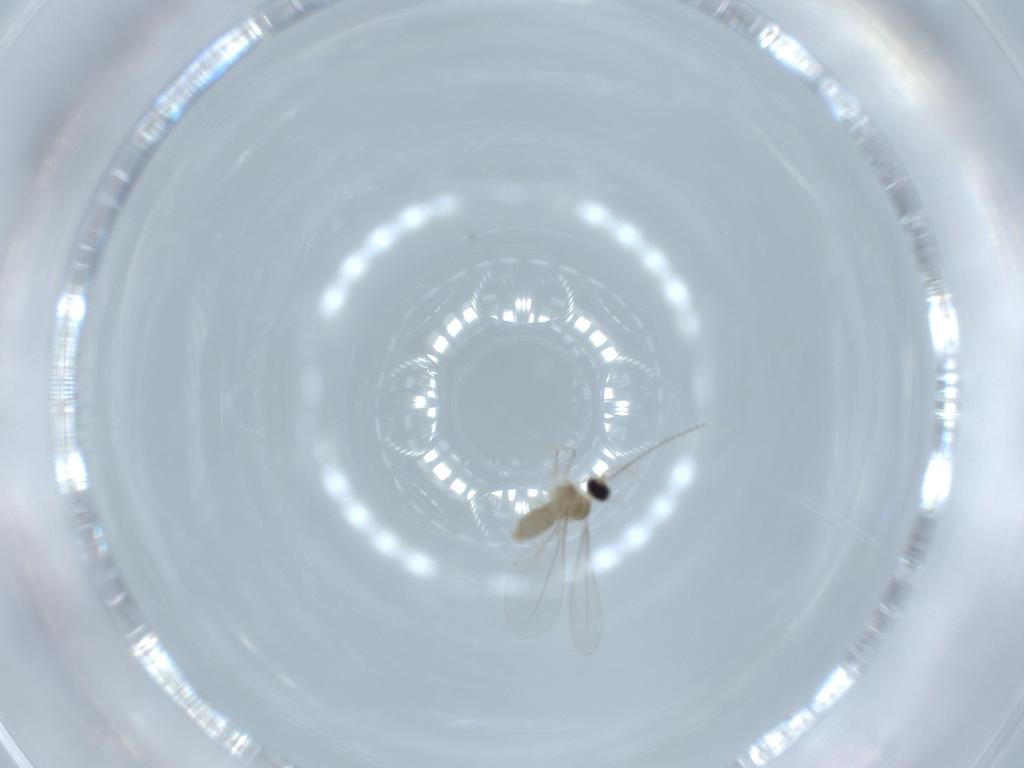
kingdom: Animalia
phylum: Arthropoda
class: Insecta
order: Diptera
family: Cecidomyiidae
